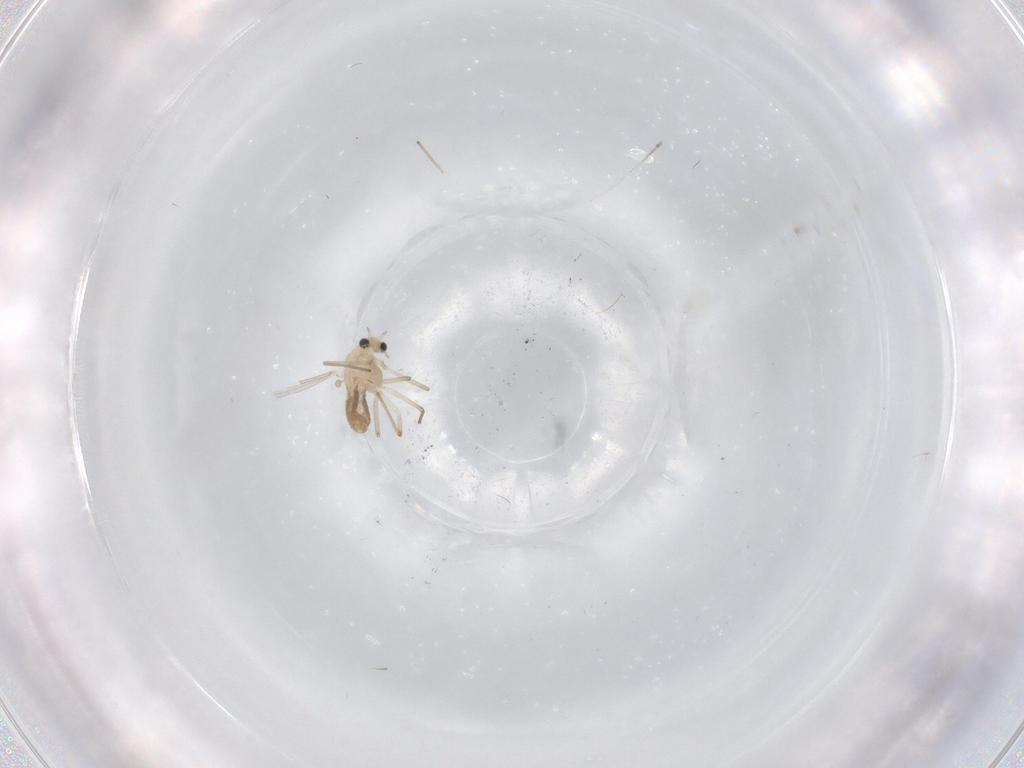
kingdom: Animalia
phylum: Arthropoda
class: Insecta
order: Diptera
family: Chironomidae
